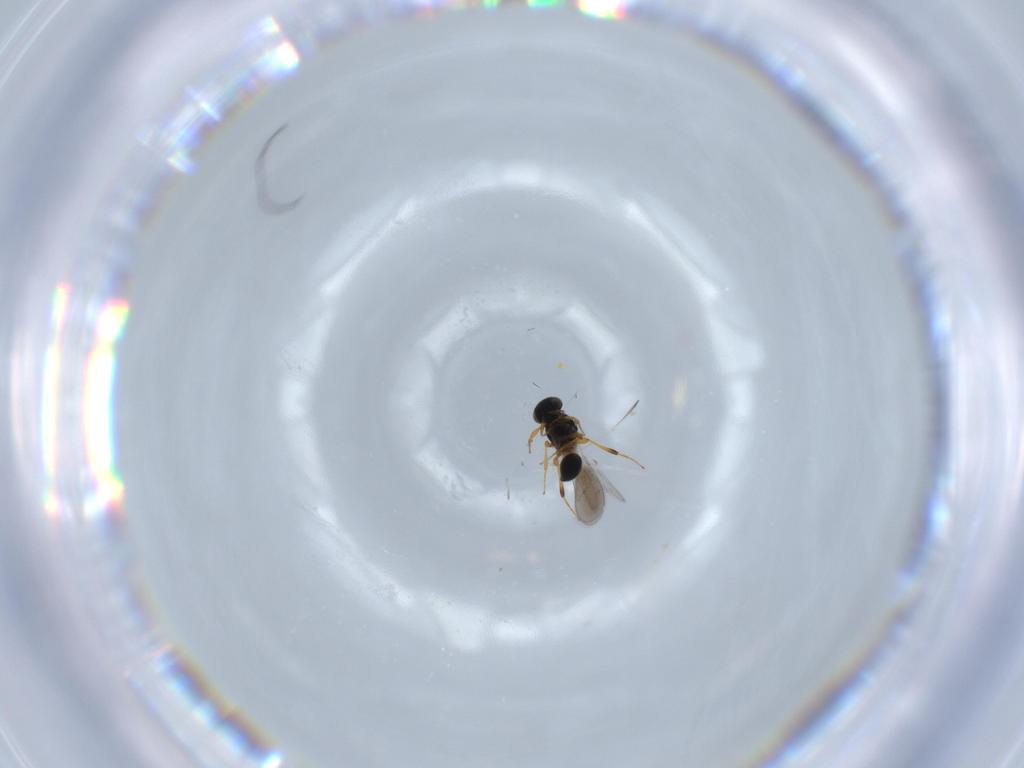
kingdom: Animalia
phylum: Arthropoda
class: Insecta
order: Hymenoptera
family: Platygastridae
